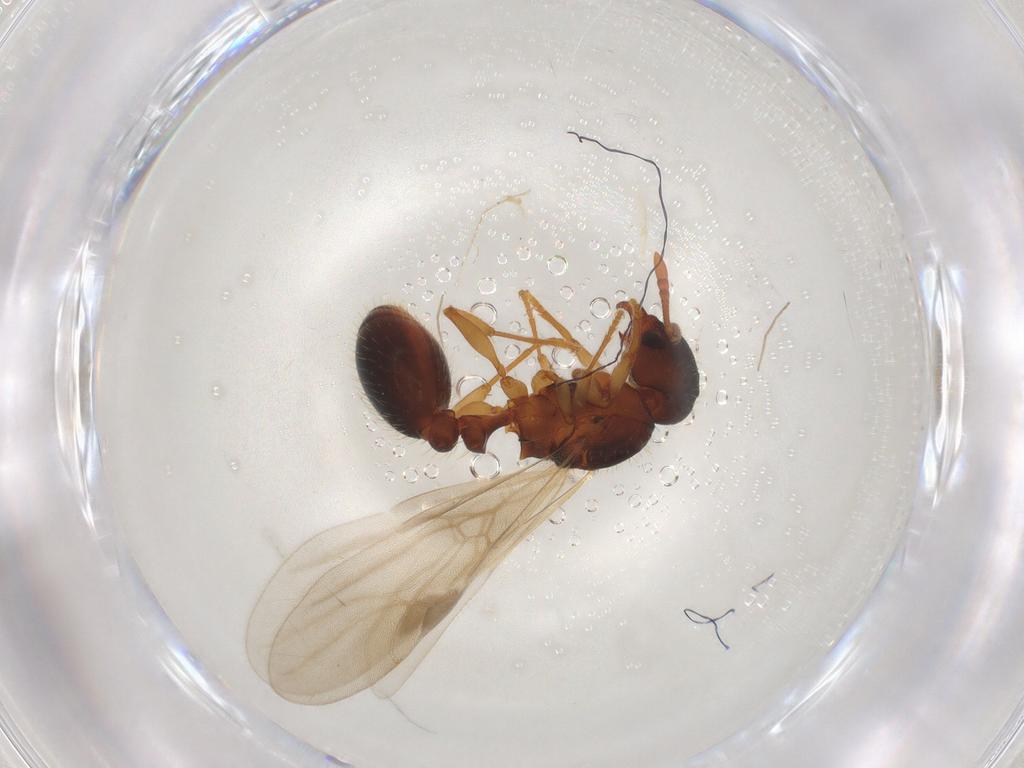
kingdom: Animalia
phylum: Arthropoda
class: Insecta
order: Hymenoptera
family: Formicidae
